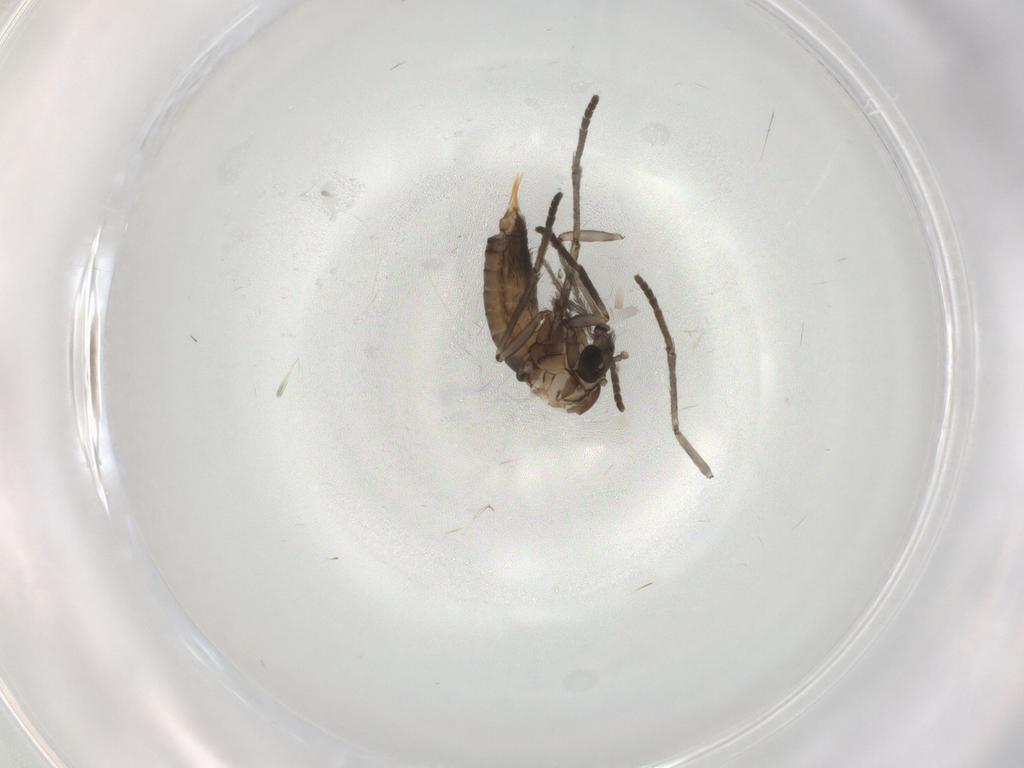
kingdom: Animalia
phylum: Arthropoda
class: Insecta
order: Diptera
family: Psychodidae
